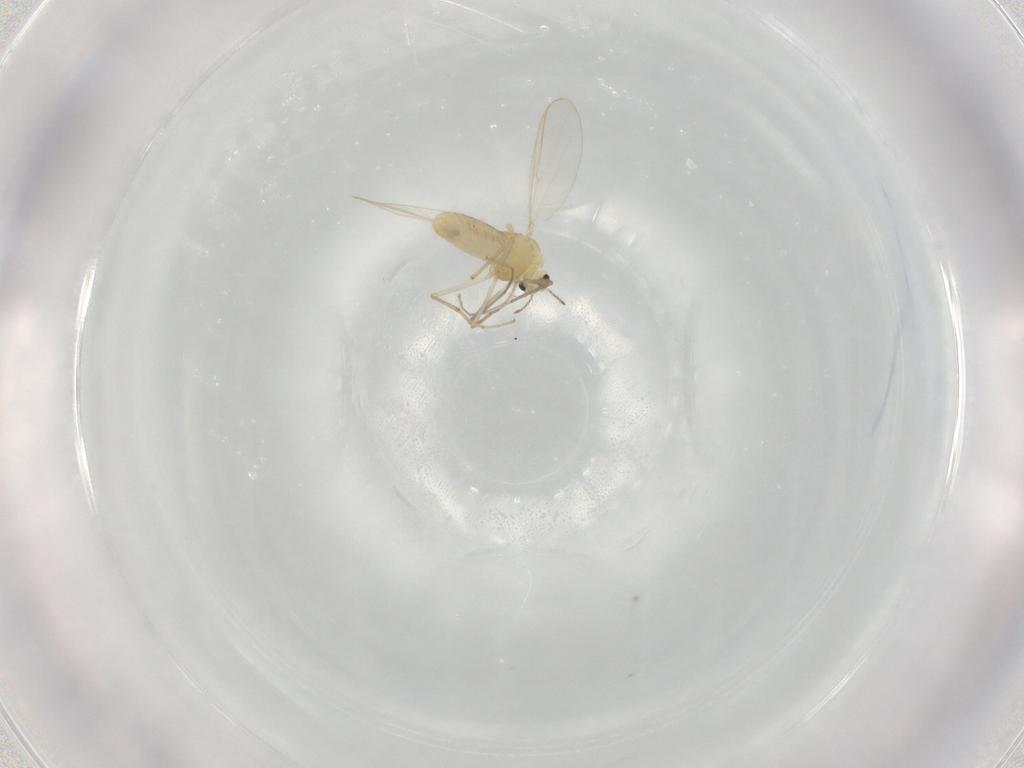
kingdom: Animalia
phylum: Arthropoda
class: Insecta
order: Diptera
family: Chironomidae
